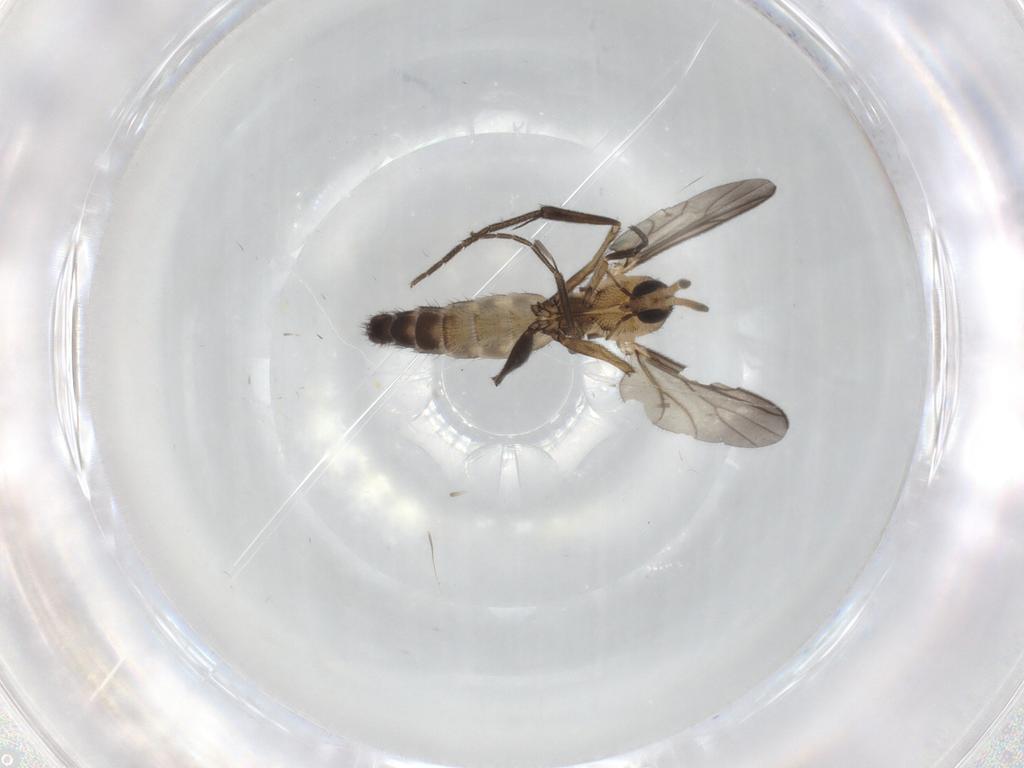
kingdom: Animalia
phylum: Arthropoda
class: Insecta
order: Diptera
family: Mycetophilidae
